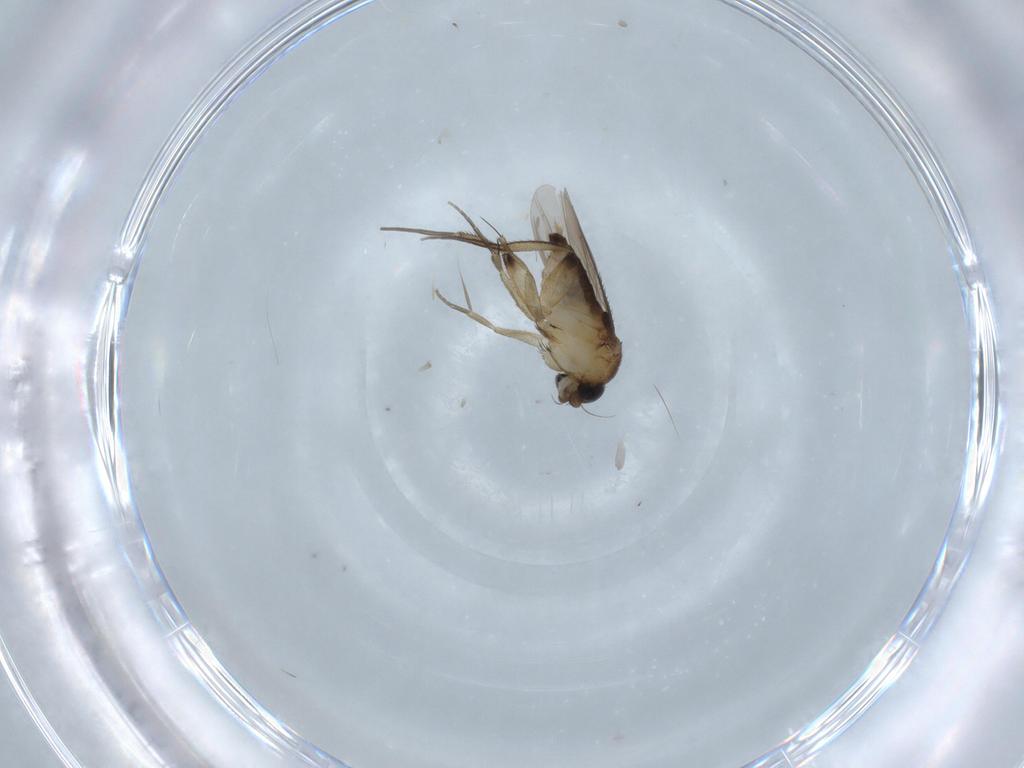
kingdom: Animalia
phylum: Arthropoda
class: Insecta
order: Diptera
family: Phoridae
